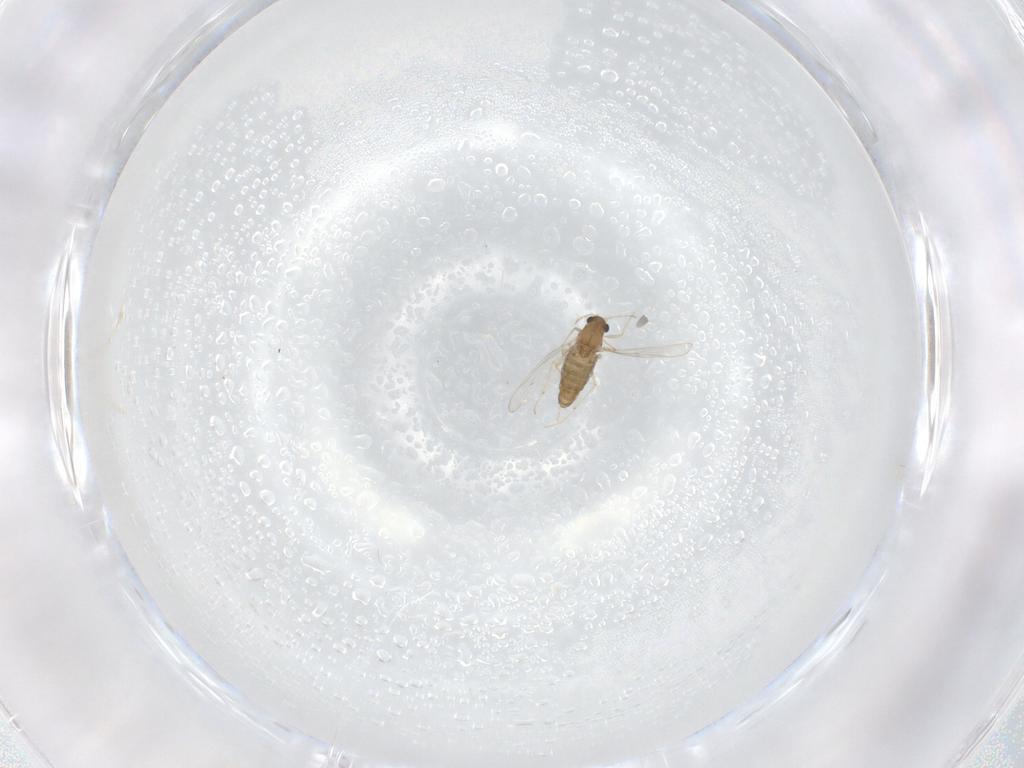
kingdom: Animalia
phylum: Arthropoda
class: Insecta
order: Diptera
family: Chironomidae
